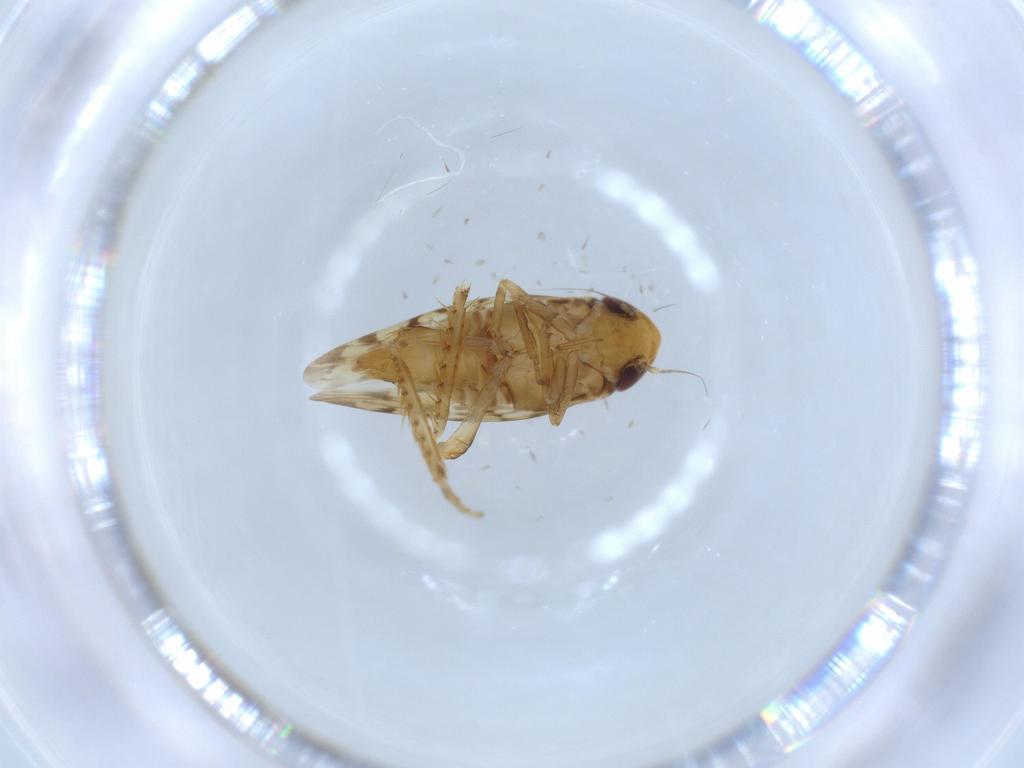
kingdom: Animalia
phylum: Arthropoda
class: Insecta
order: Hemiptera
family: Cicadellidae
